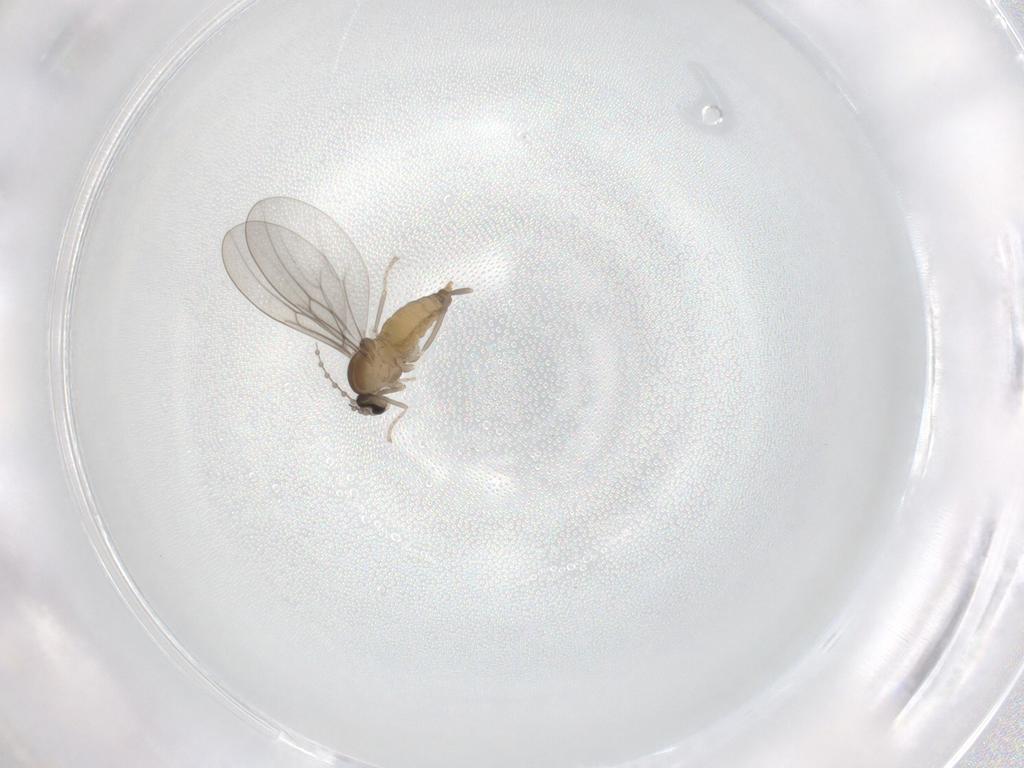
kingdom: Animalia
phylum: Arthropoda
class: Insecta
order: Diptera
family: Cecidomyiidae
